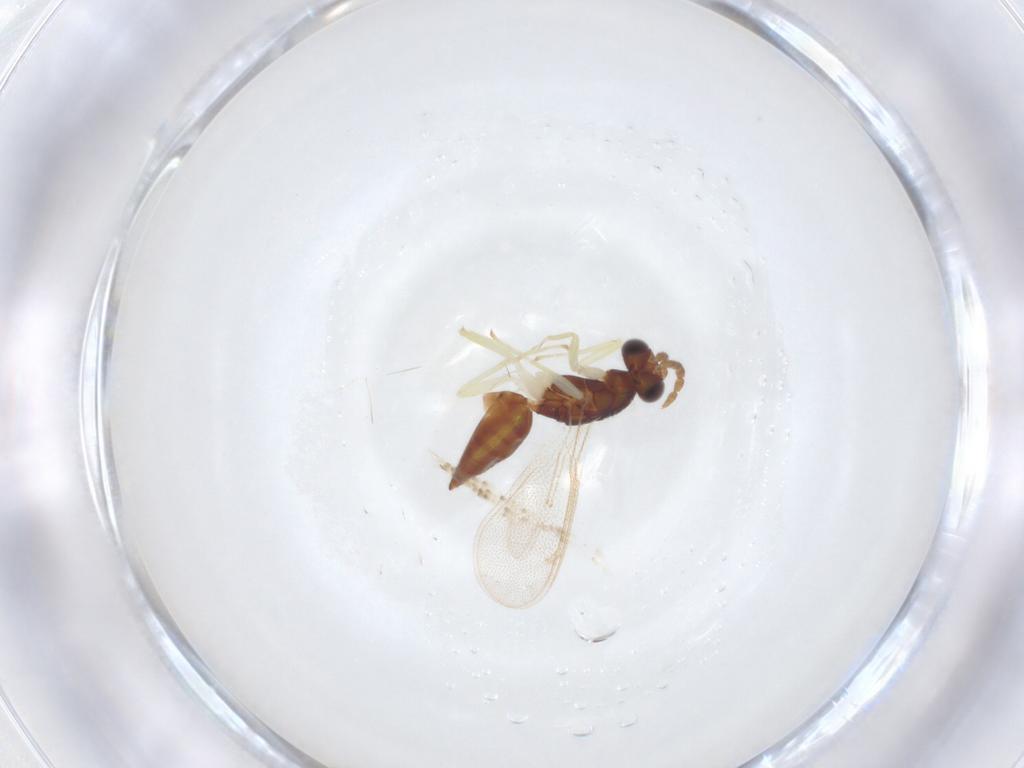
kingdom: Animalia
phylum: Arthropoda
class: Insecta
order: Hymenoptera
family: Eulophidae
